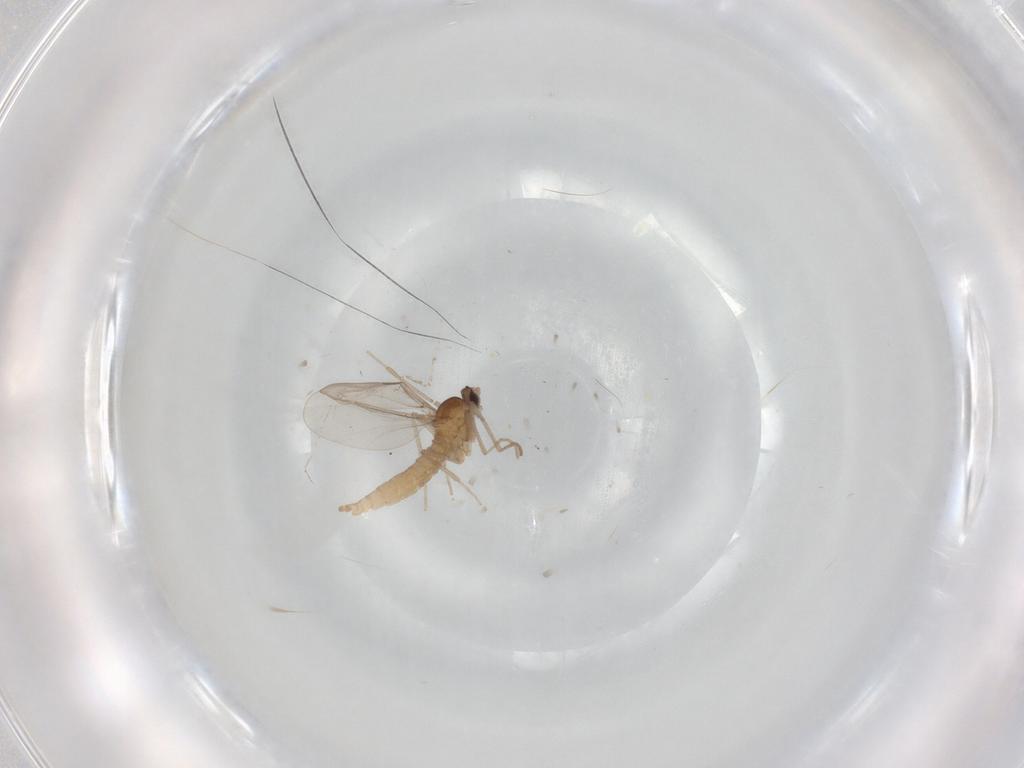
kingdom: Animalia
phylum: Arthropoda
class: Insecta
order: Diptera
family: Cecidomyiidae
